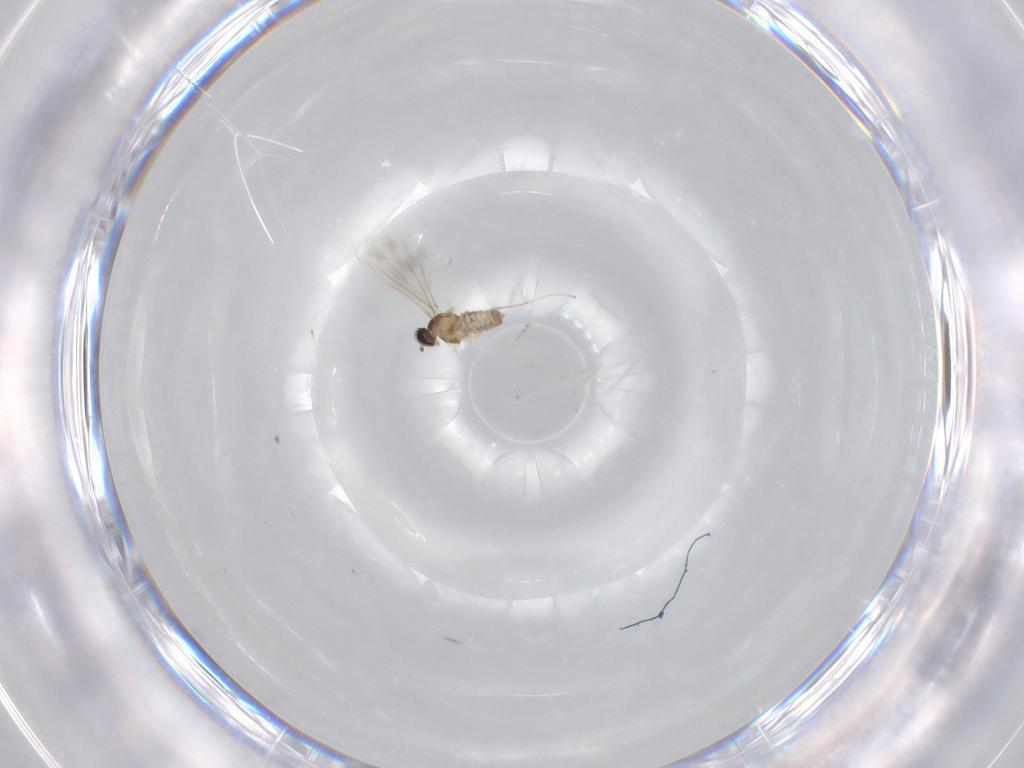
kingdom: Animalia
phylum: Arthropoda
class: Insecta
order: Diptera
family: Cecidomyiidae
